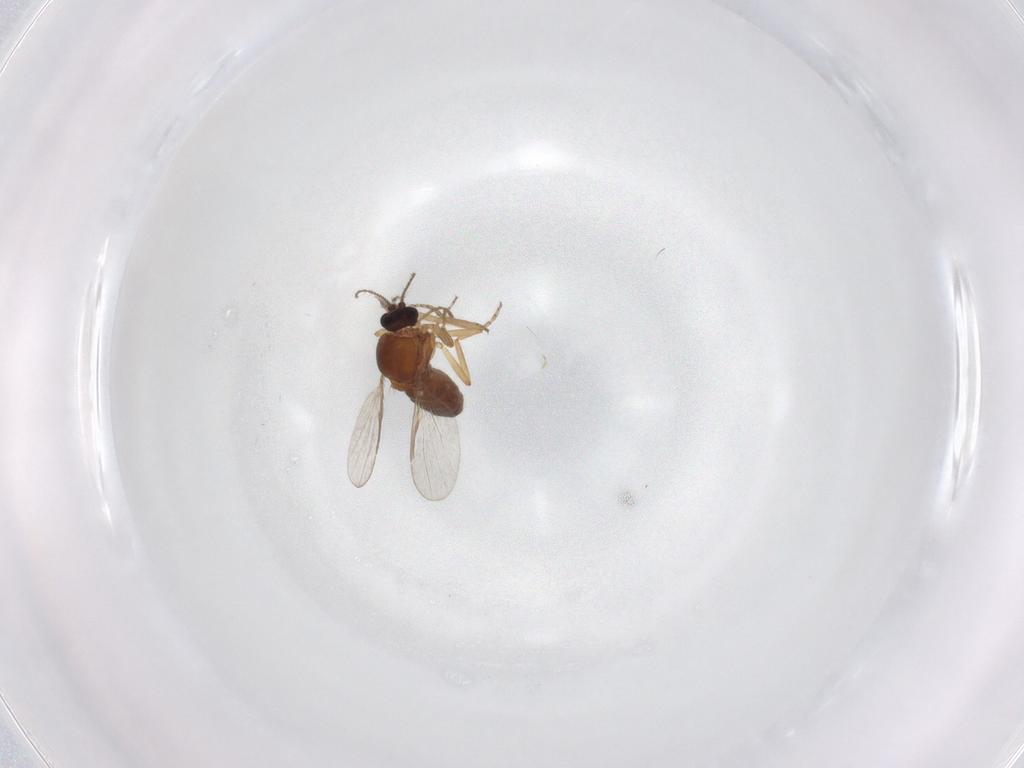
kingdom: Animalia
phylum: Arthropoda
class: Insecta
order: Diptera
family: Ceratopogonidae
